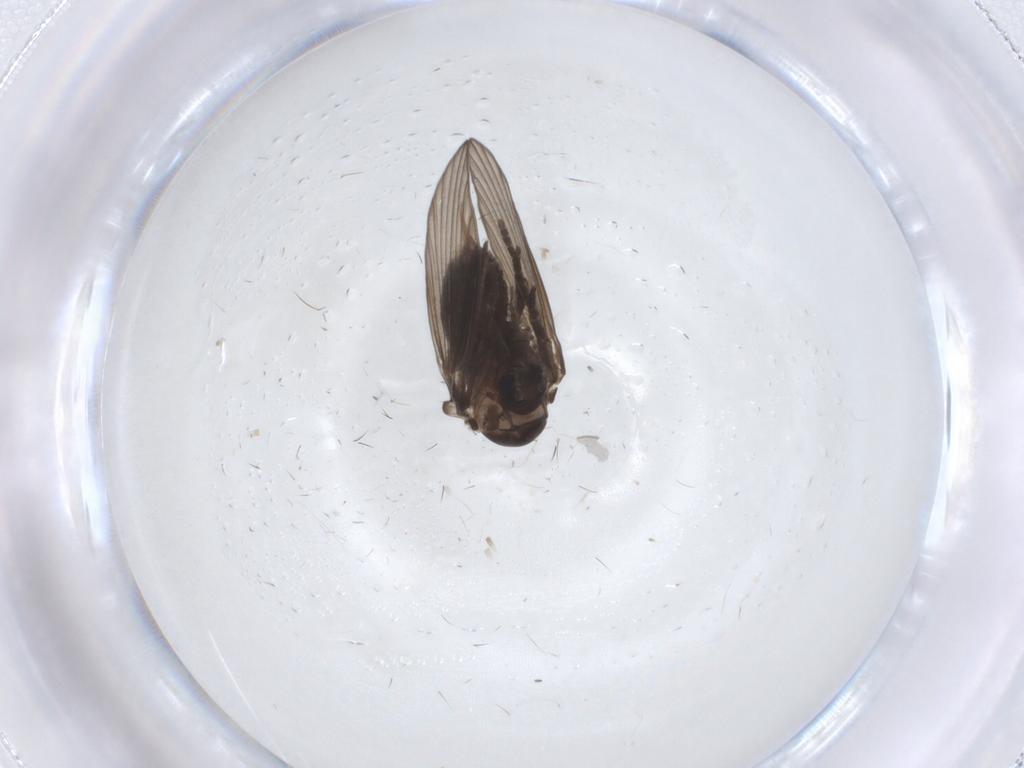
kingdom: Animalia
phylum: Arthropoda
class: Insecta
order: Diptera
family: Psychodidae
